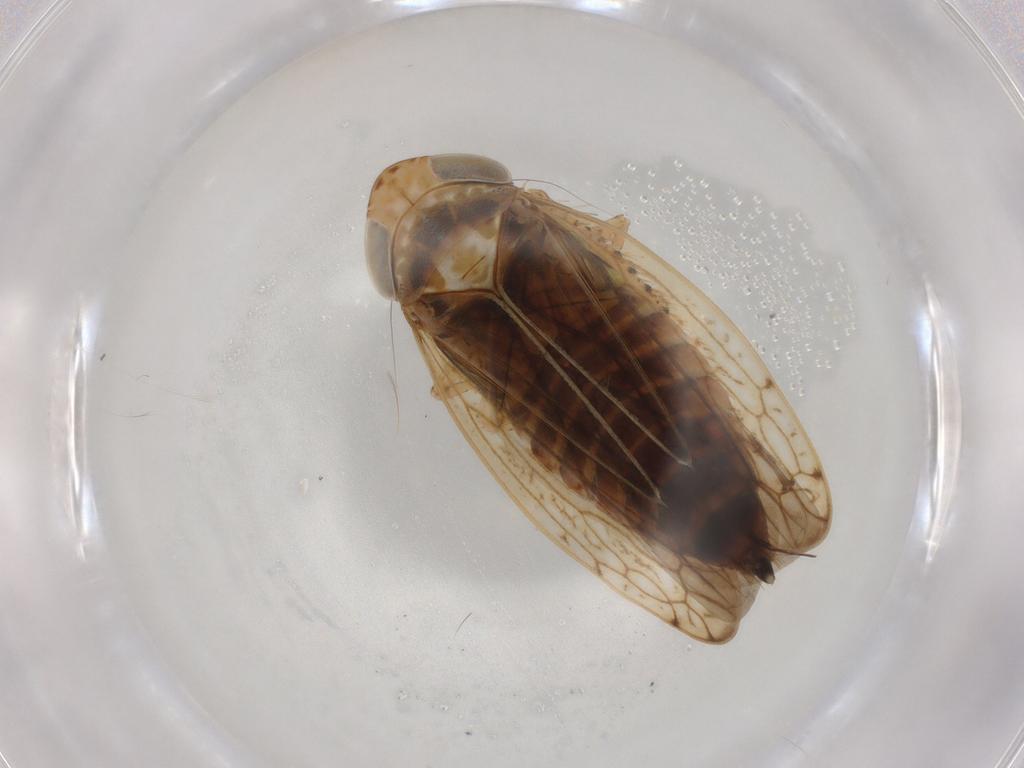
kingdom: Animalia
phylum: Arthropoda
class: Insecta
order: Hemiptera
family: Cicadellidae
